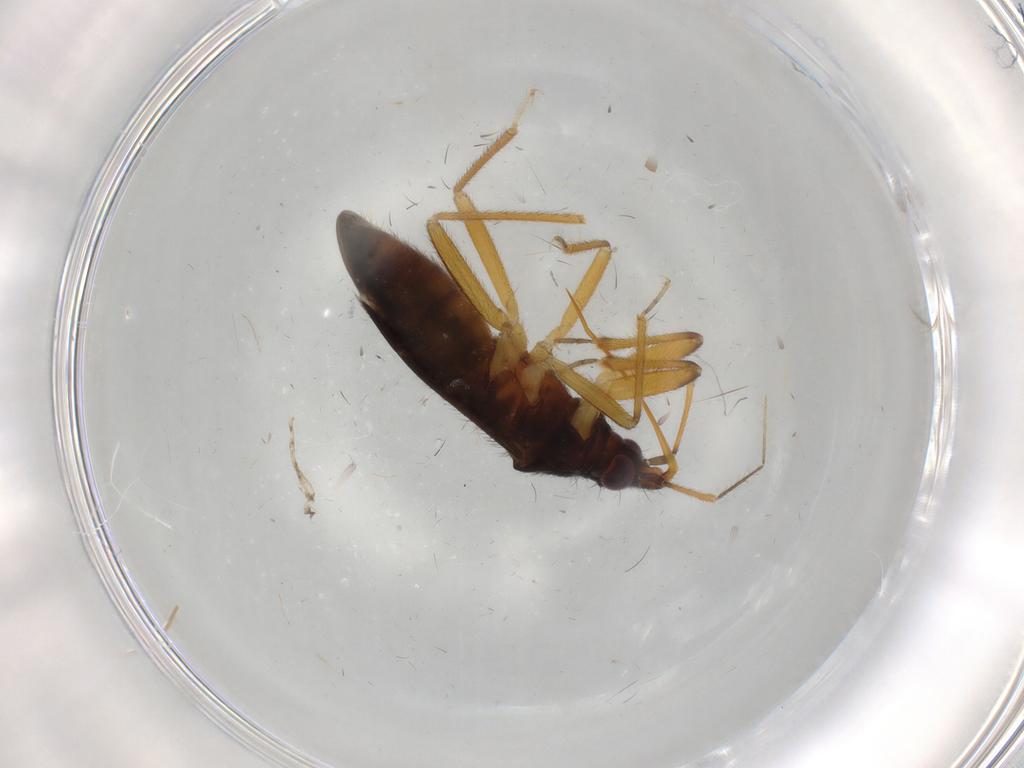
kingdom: Animalia
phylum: Arthropoda
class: Insecta
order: Hemiptera
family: Anthocoridae
